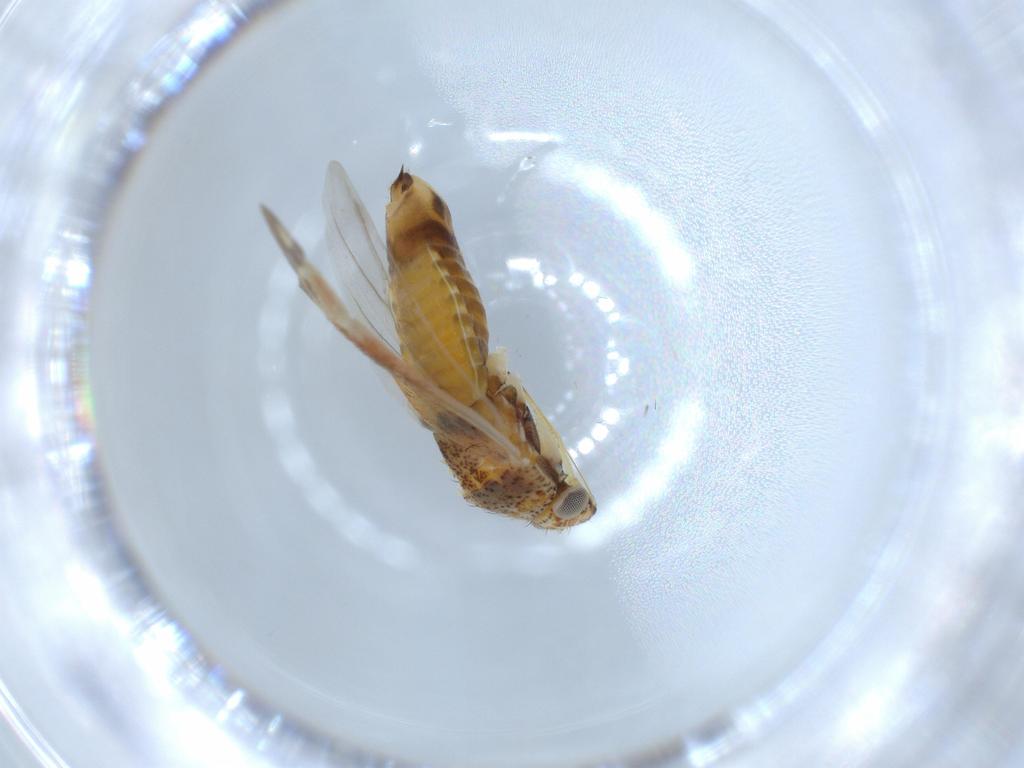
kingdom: Animalia
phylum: Arthropoda
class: Insecta
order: Hemiptera
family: Miridae
